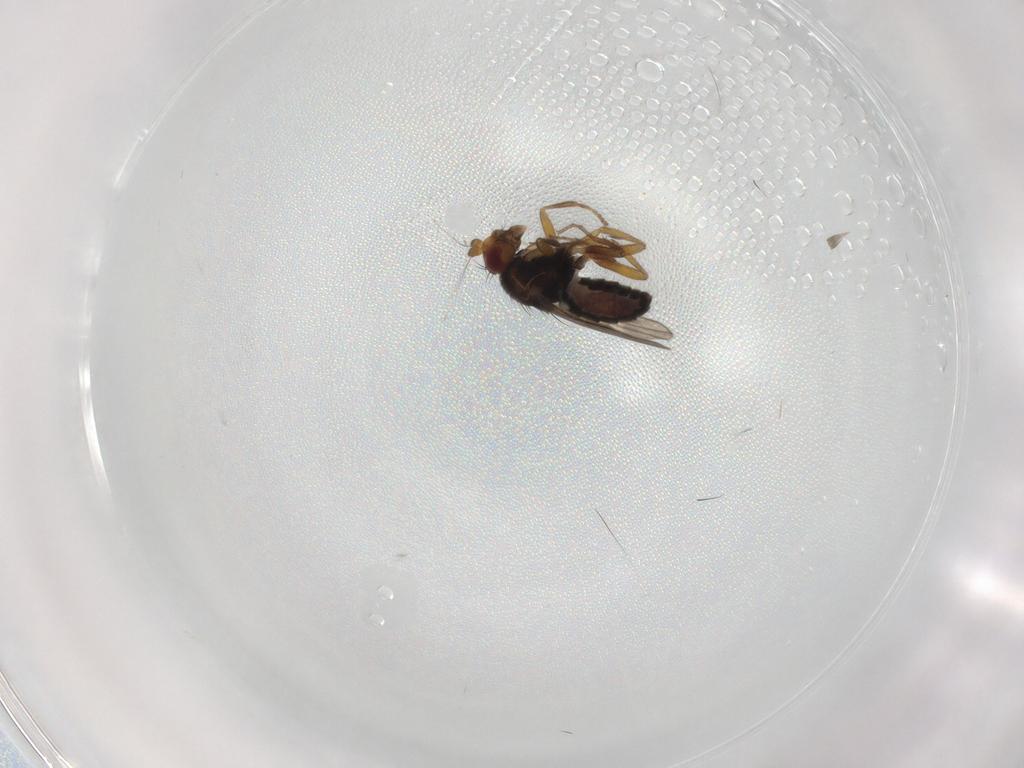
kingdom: Animalia
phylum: Arthropoda
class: Insecta
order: Diptera
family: Sphaeroceridae
